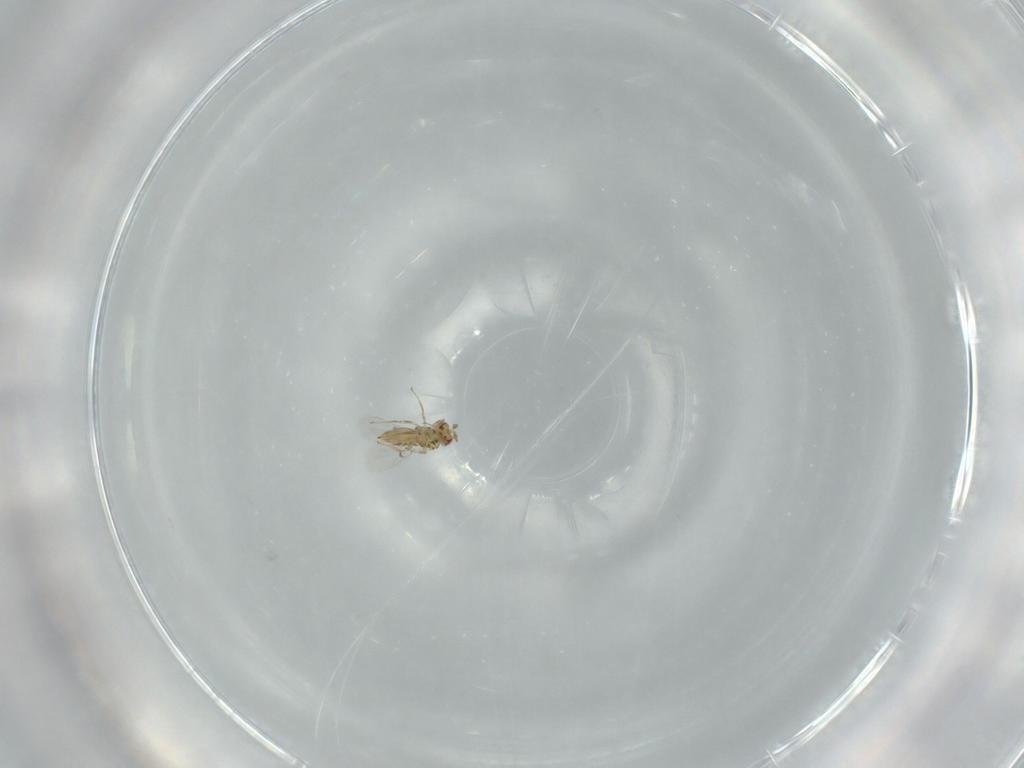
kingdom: Animalia
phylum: Arthropoda
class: Insecta
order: Hymenoptera
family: Trichogrammatidae
